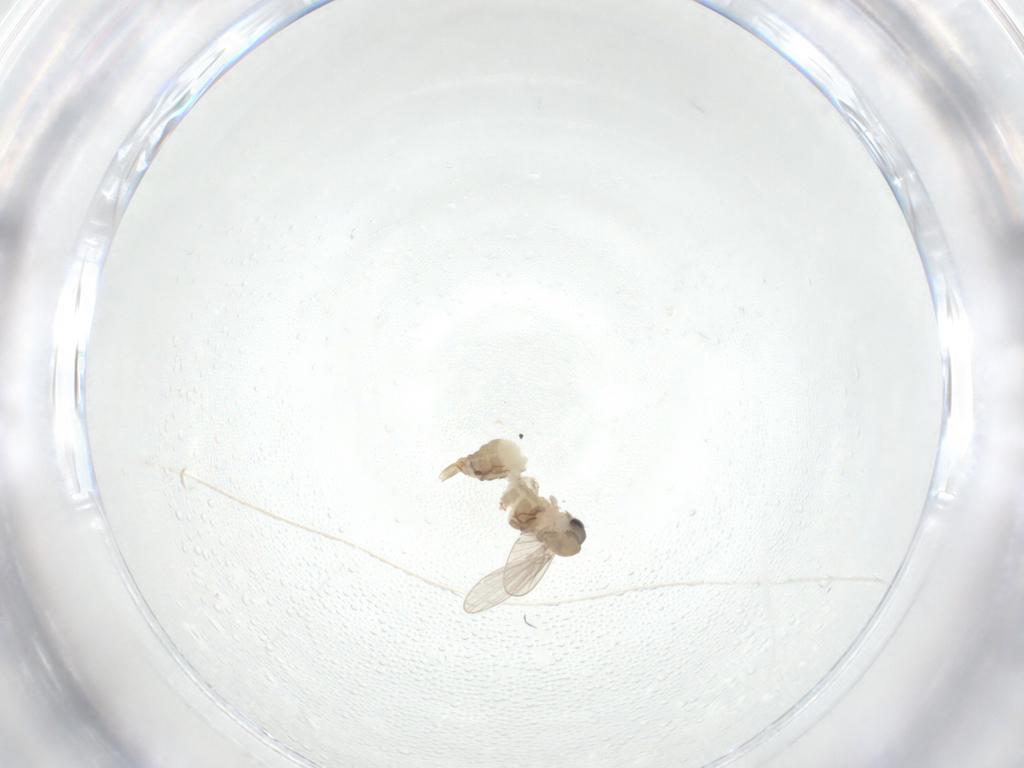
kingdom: Animalia
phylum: Arthropoda
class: Insecta
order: Diptera
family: Psychodidae
